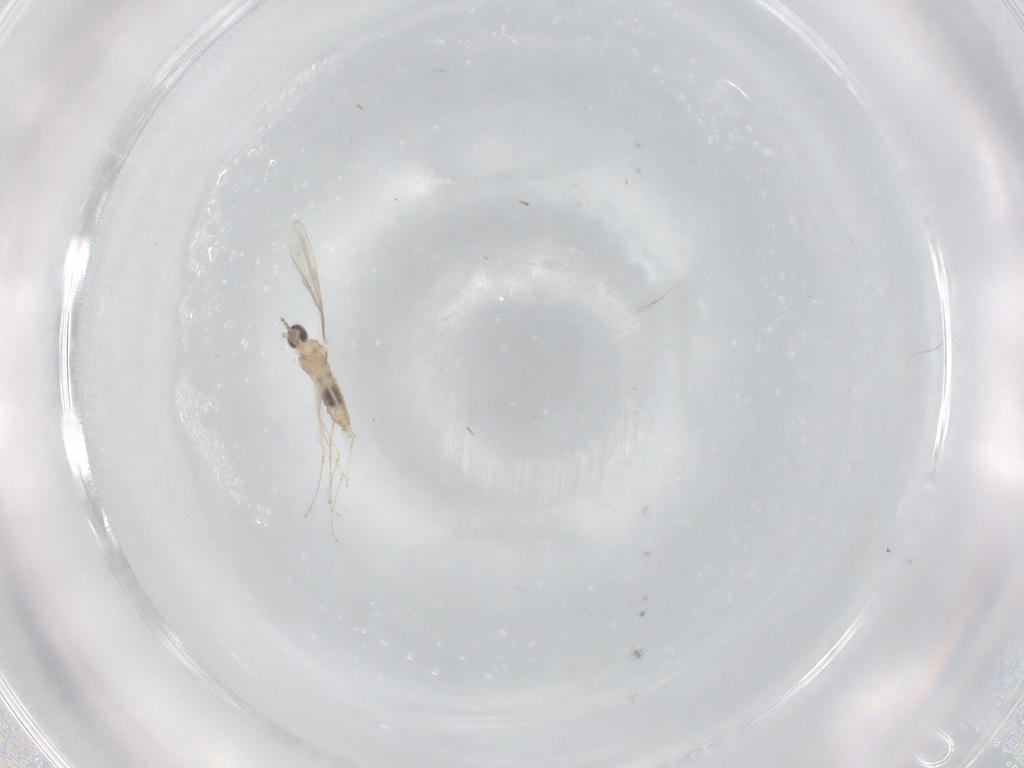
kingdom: Animalia
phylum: Arthropoda
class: Insecta
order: Diptera
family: Cecidomyiidae
